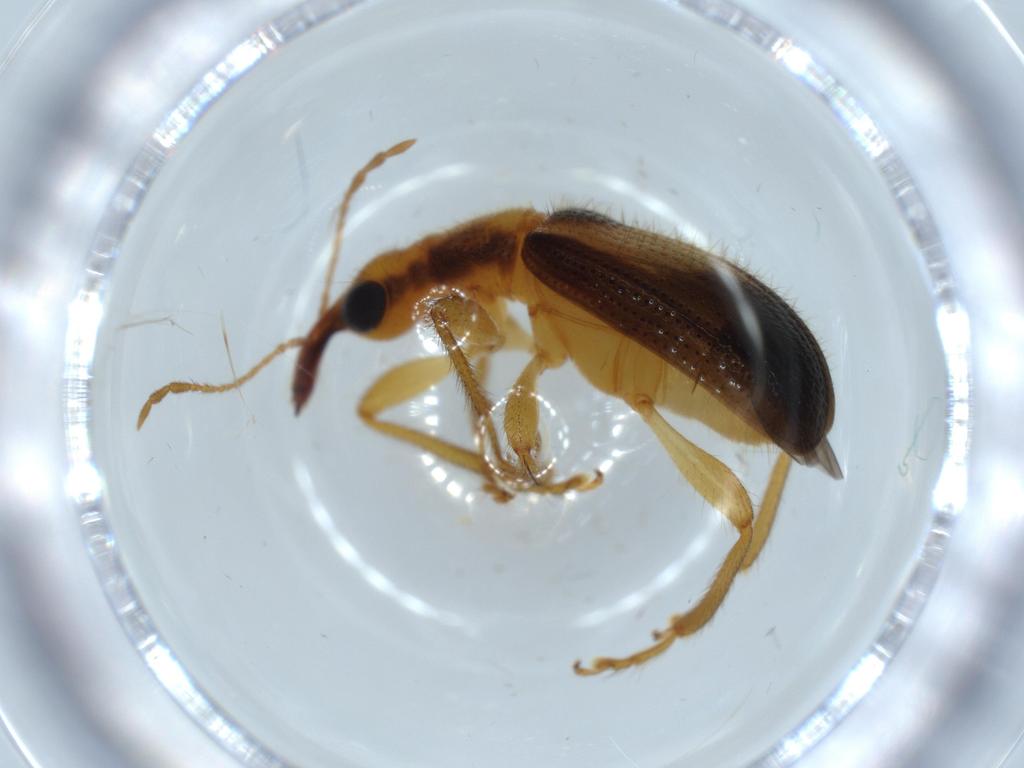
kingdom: Animalia
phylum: Arthropoda
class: Insecta
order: Coleoptera
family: Attelabidae
